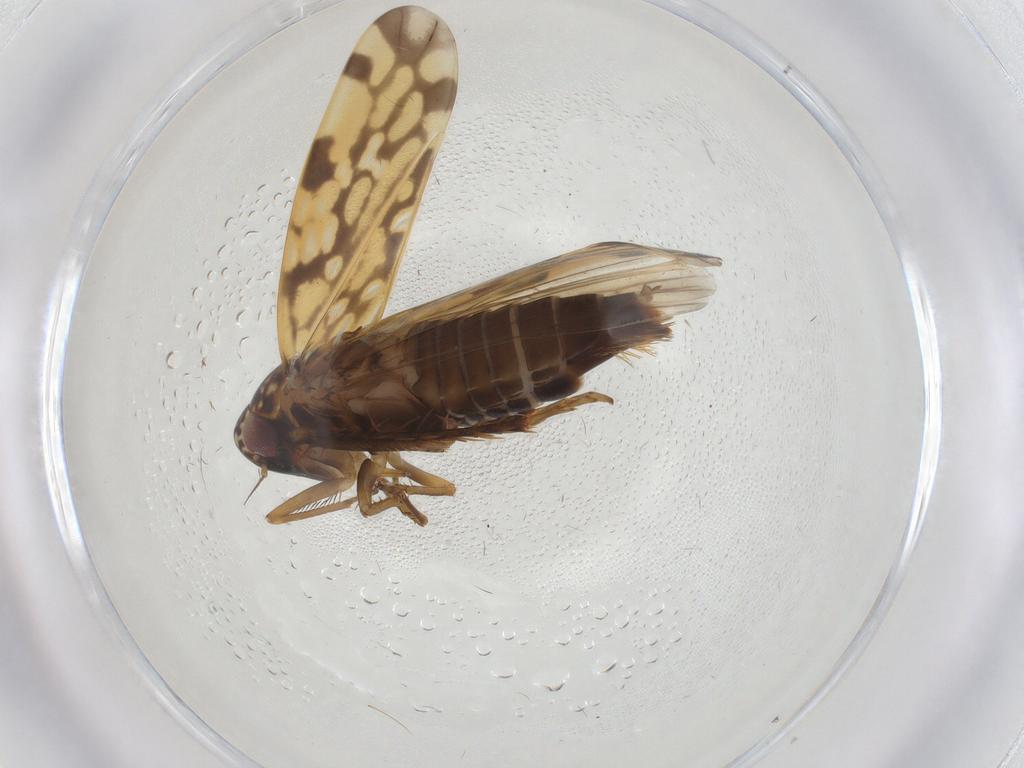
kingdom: Animalia
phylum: Arthropoda
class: Insecta
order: Hemiptera
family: Cicadellidae
